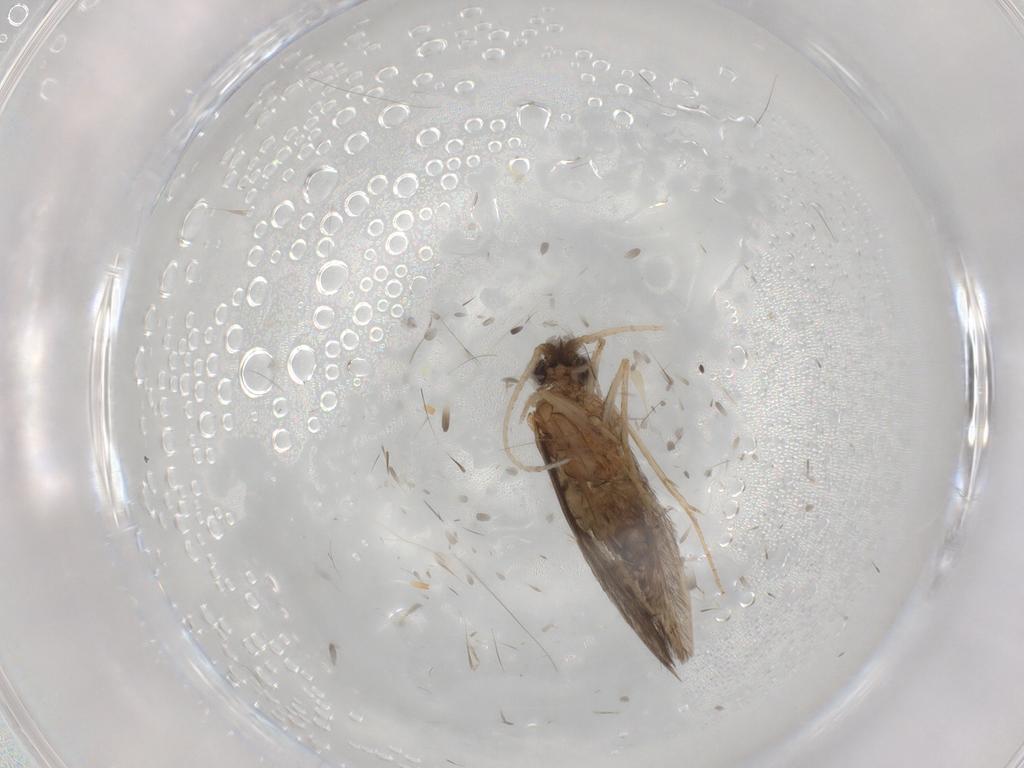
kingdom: Animalia
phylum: Arthropoda
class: Insecta
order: Trichoptera
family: Hydroptilidae
